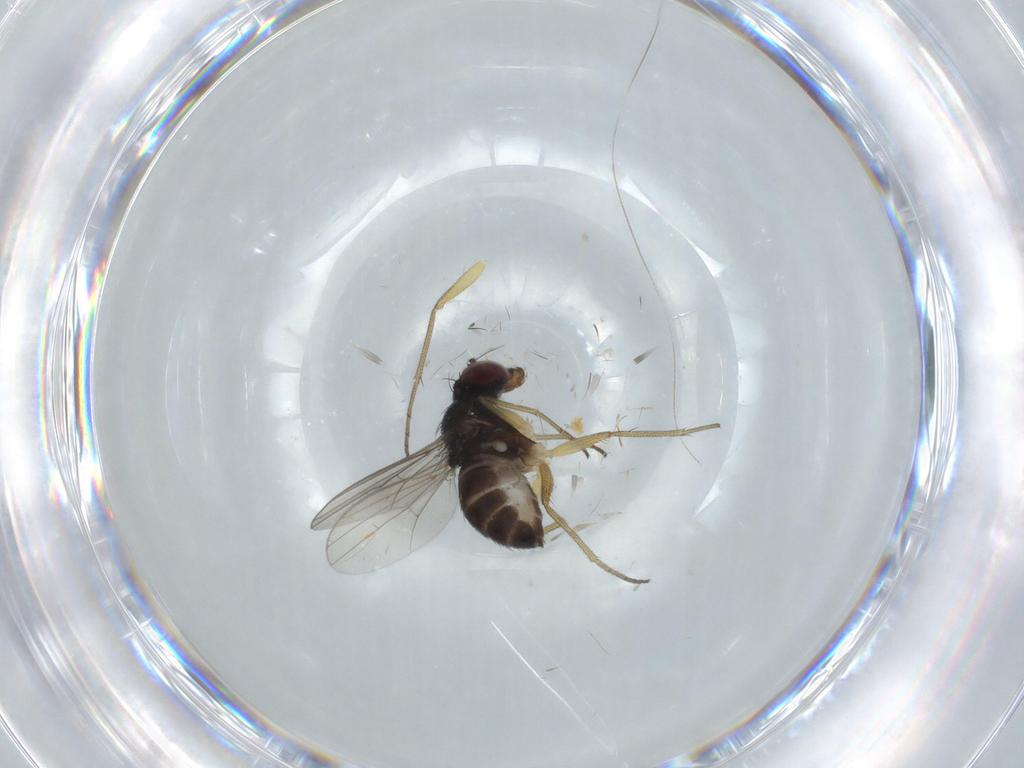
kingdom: Animalia
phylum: Arthropoda
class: Insecta
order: Diptera
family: Dolichopodidae
